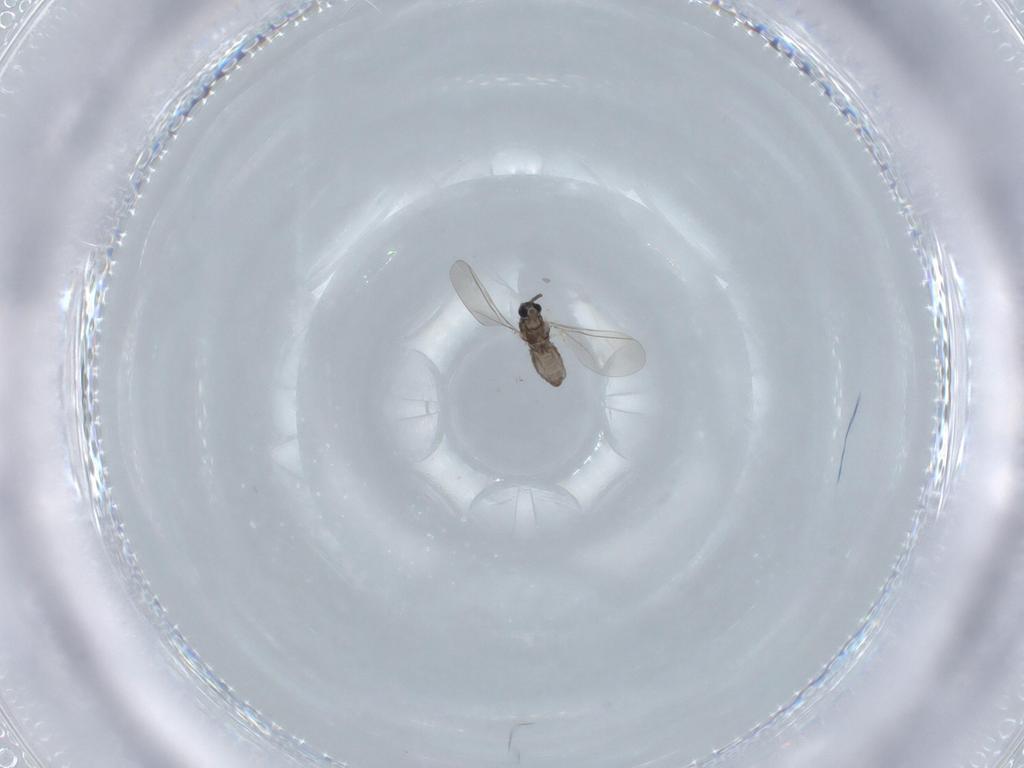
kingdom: Animalia
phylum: Arthropoda
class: Insecta
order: Diptera
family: Cecidomyiidae
